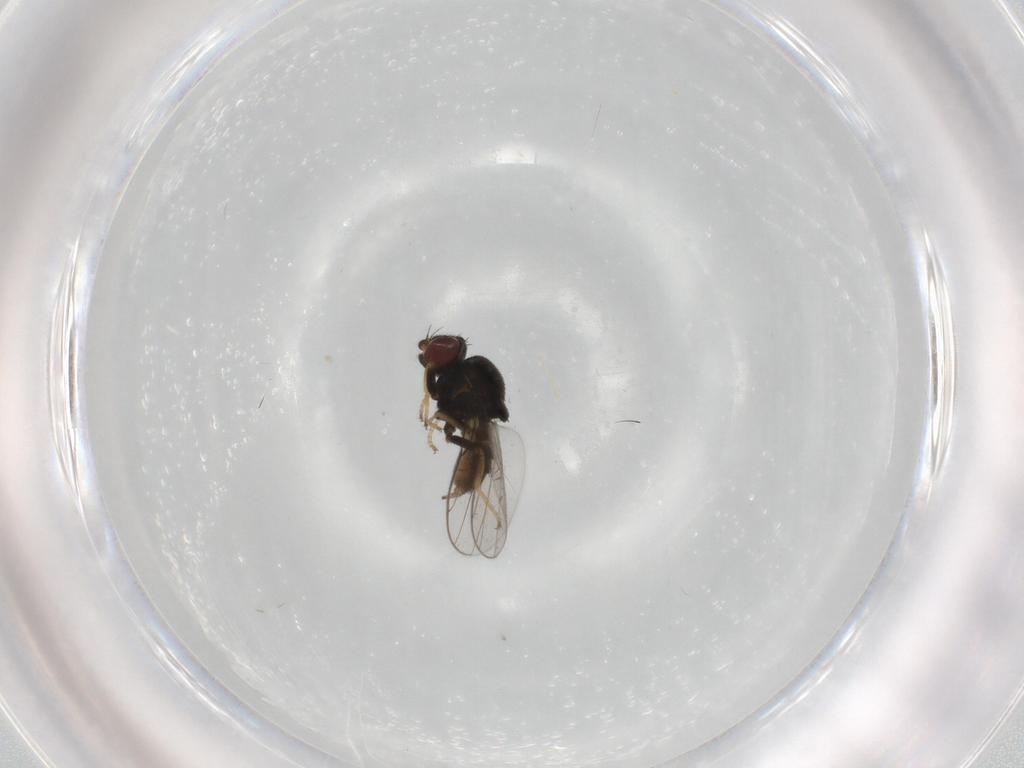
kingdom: Animalia
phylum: Arthropoda
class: Insecta
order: Diptera
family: Chloropidae
